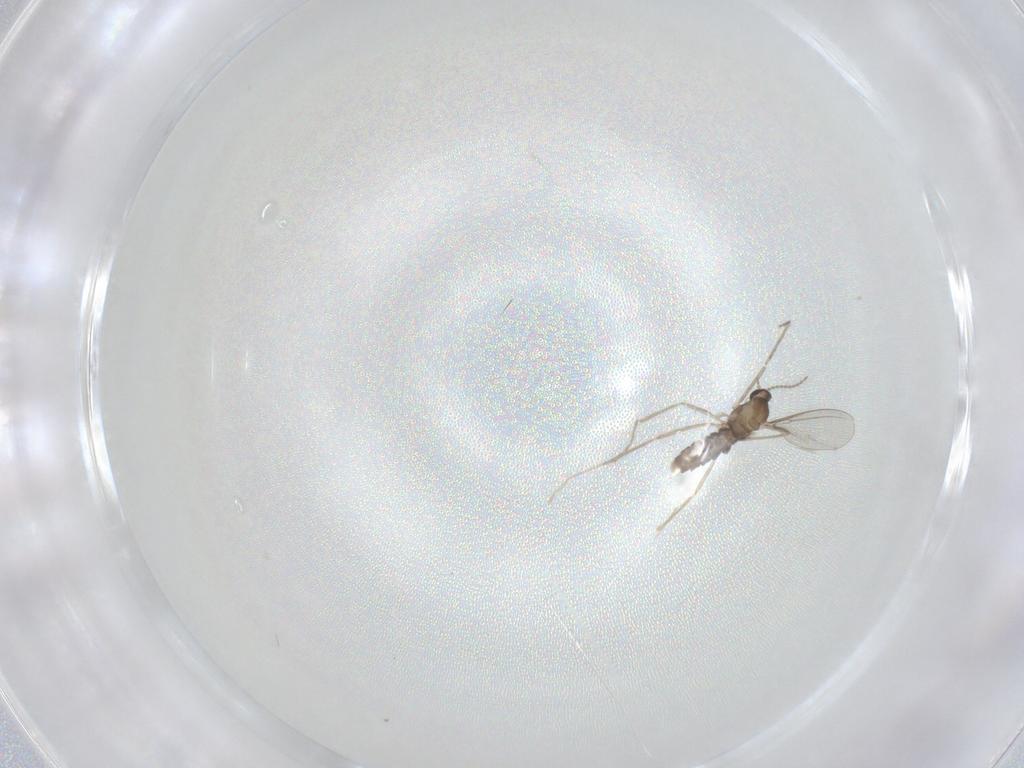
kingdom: Animalia
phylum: Arthropoda
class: Insecta
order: Diptera
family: Cecidomyiidae
